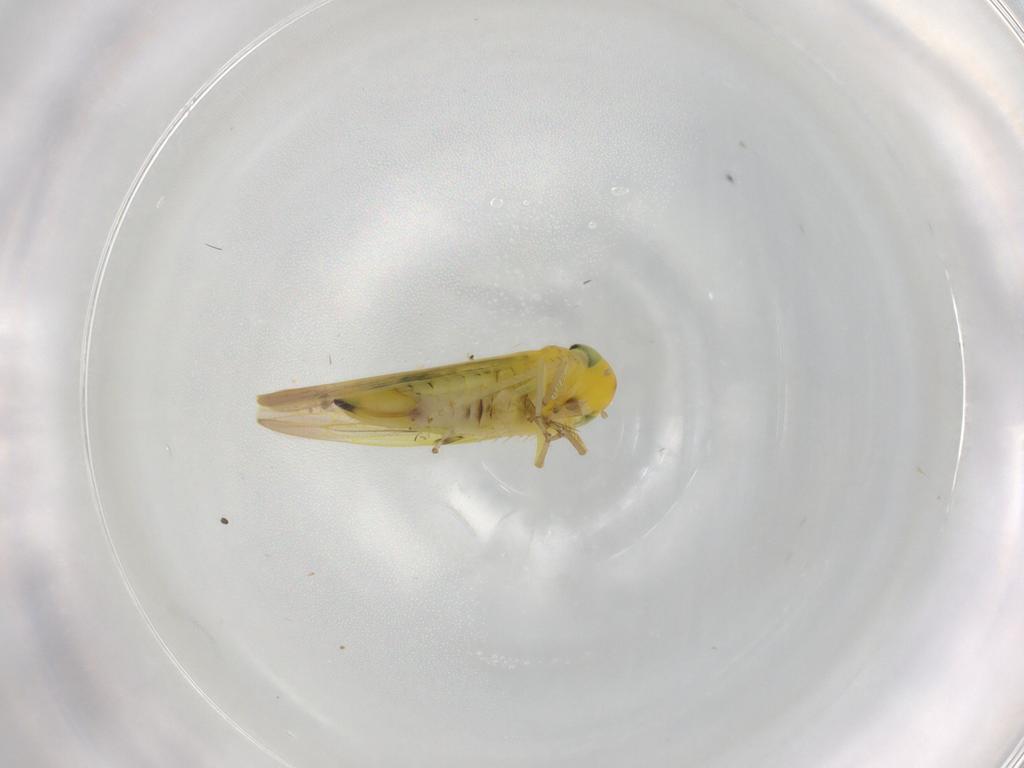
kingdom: Animalia
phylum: Arthropoda
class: Insecta
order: Hemiptera
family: Cicadellidae
